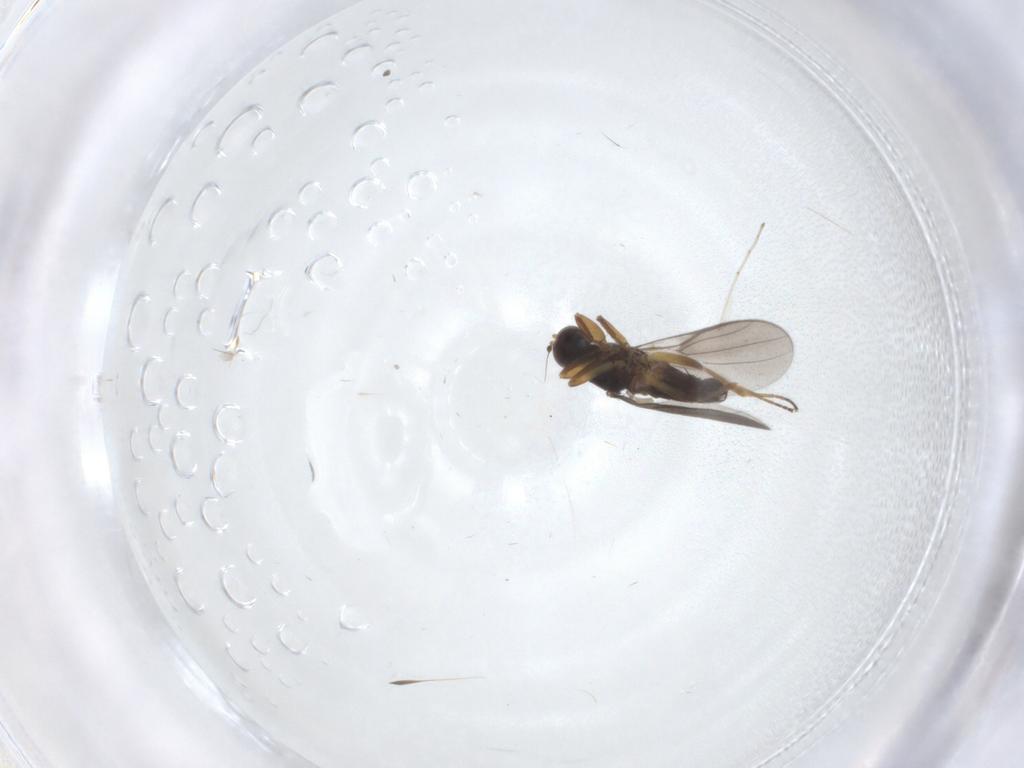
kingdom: Animalia
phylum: Arthropoda
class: Insecta
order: Diptera
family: Hybotidae
